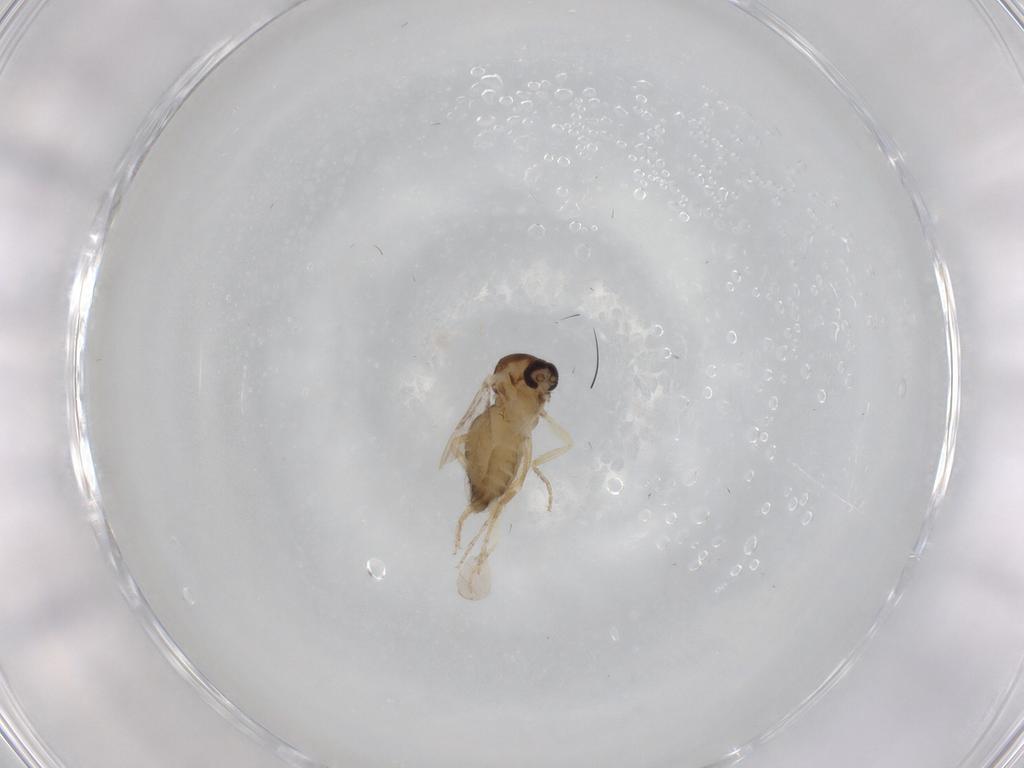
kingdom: Animalia
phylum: Arthropoda
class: Insecta
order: Diptera
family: Ceratopogonidae
